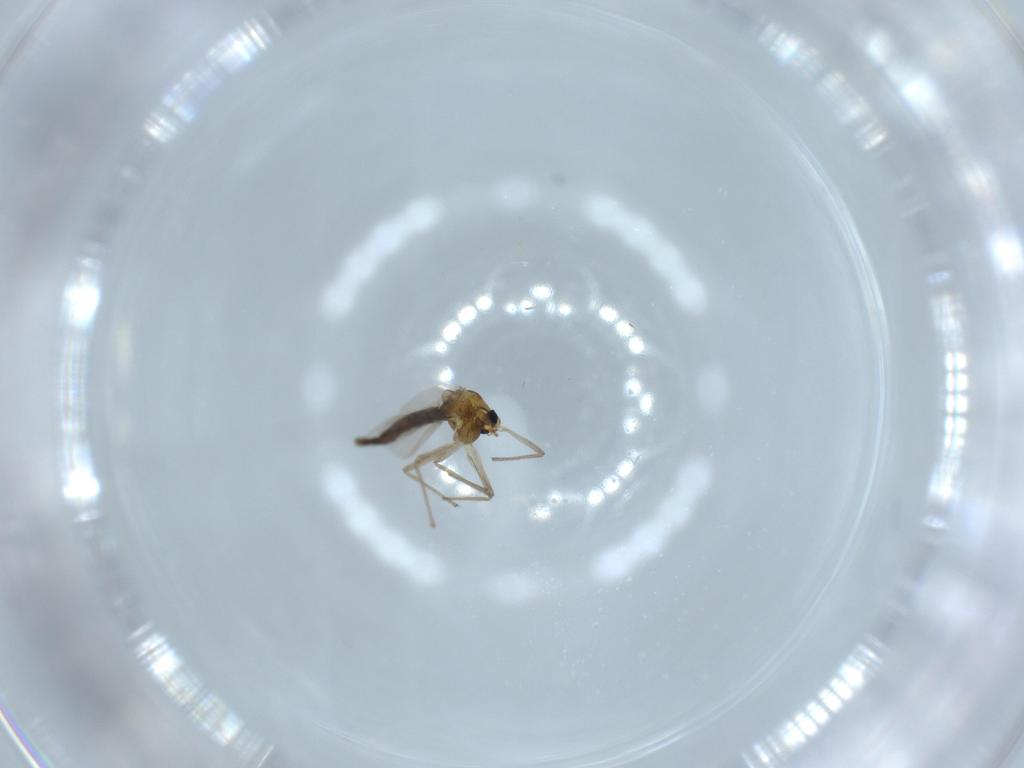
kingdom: Animalia
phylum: Arthropoda
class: Insecta
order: Diptera
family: Chironomidae
